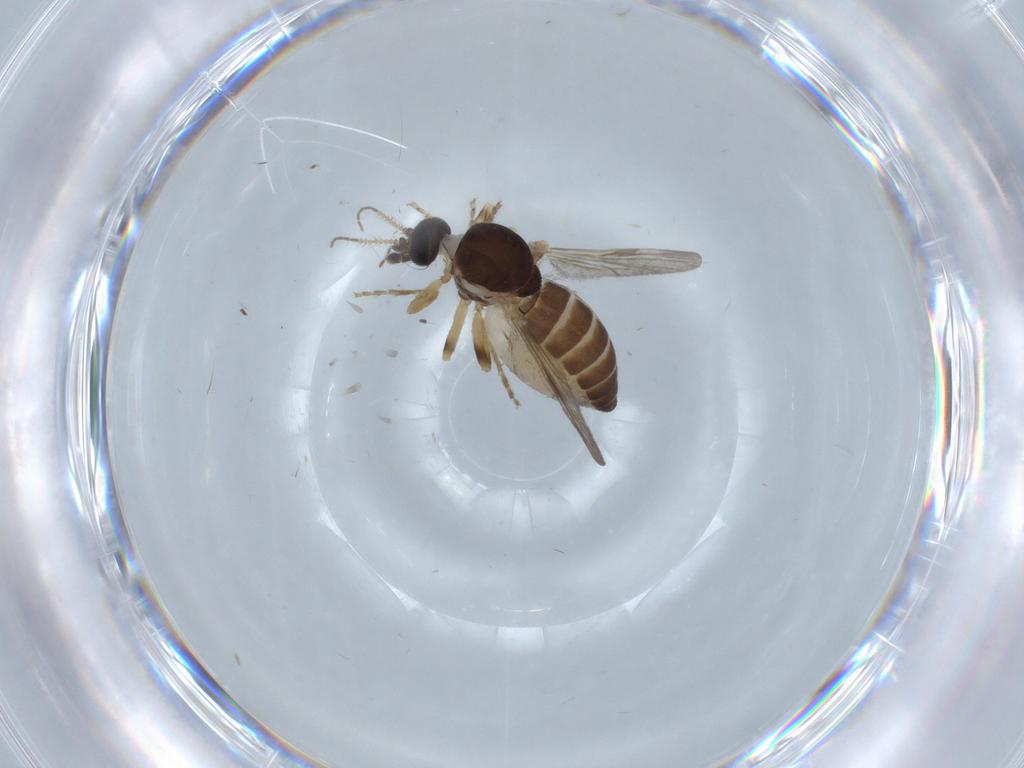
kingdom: Animalia
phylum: Arthropoda
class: Insecta
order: Diptera
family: Ceratopogonidae
